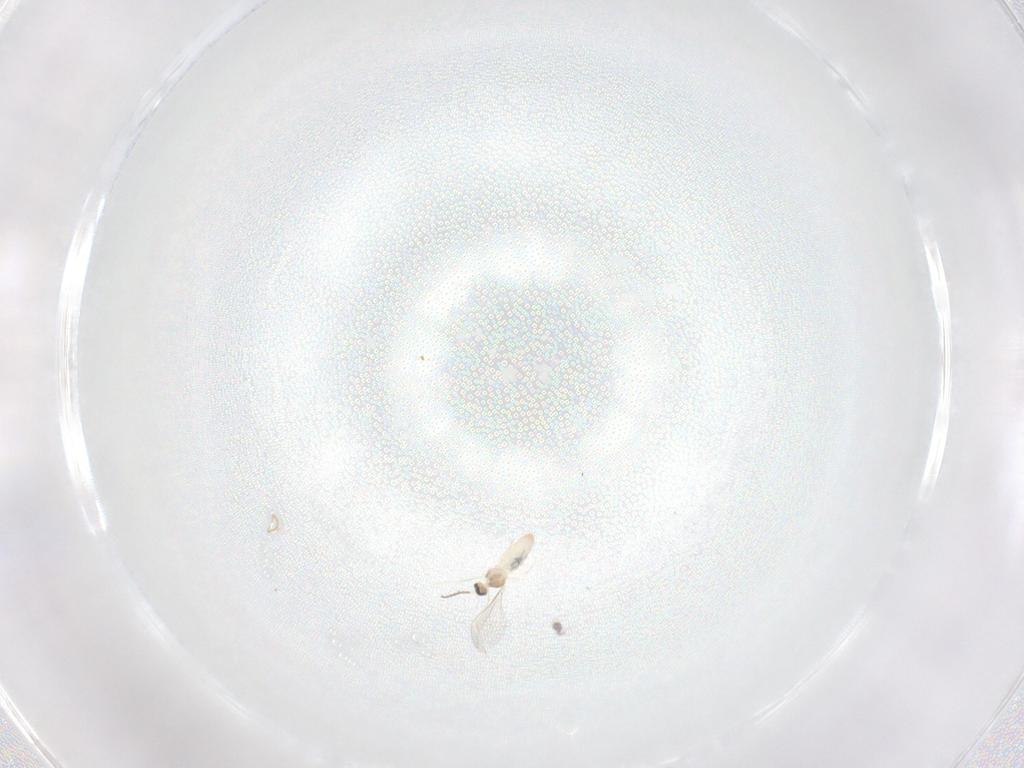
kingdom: Animalia
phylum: Arthropoda
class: Insecta
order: Diptera
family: Cecidomyiidae
